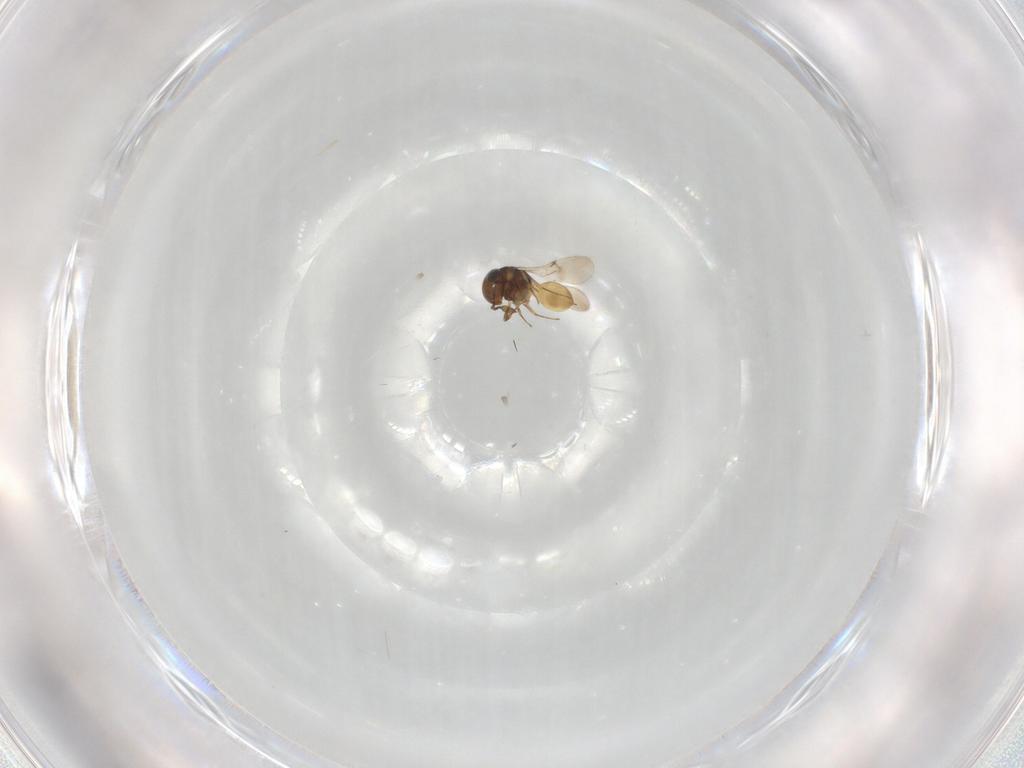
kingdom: Animalia
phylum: Arthropoda
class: Insecta
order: Hymenoptera
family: Scelionidae
